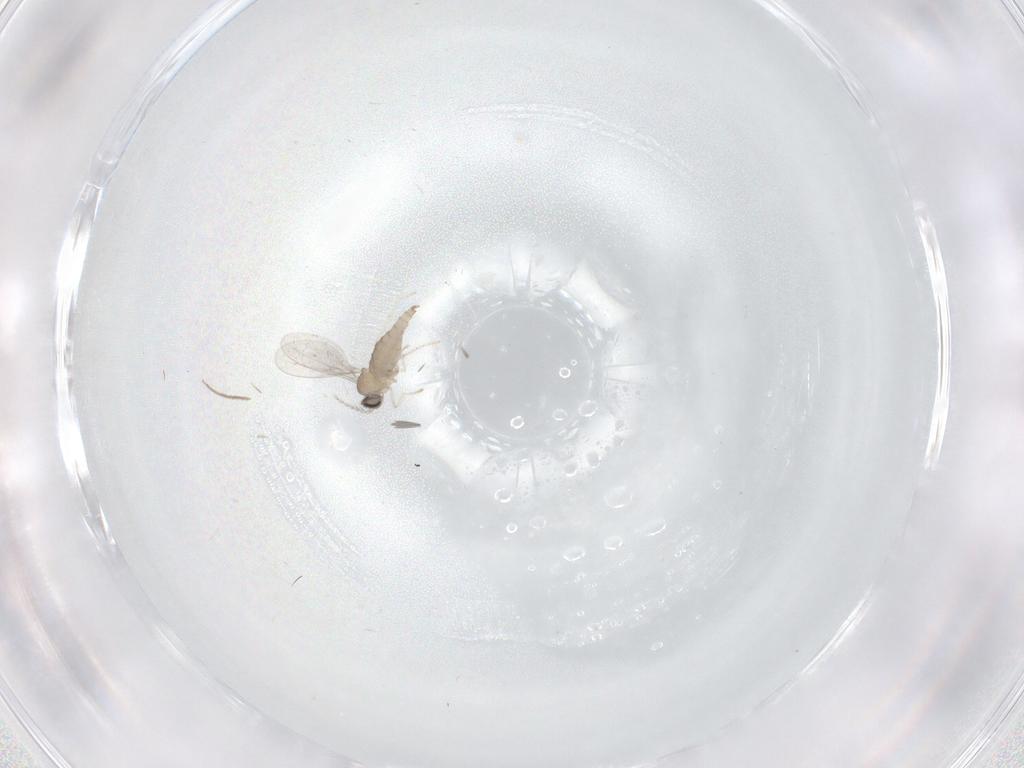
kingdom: Animalia
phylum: Arthropoda
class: Insecta
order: Diptera
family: Cecidomyiidae
